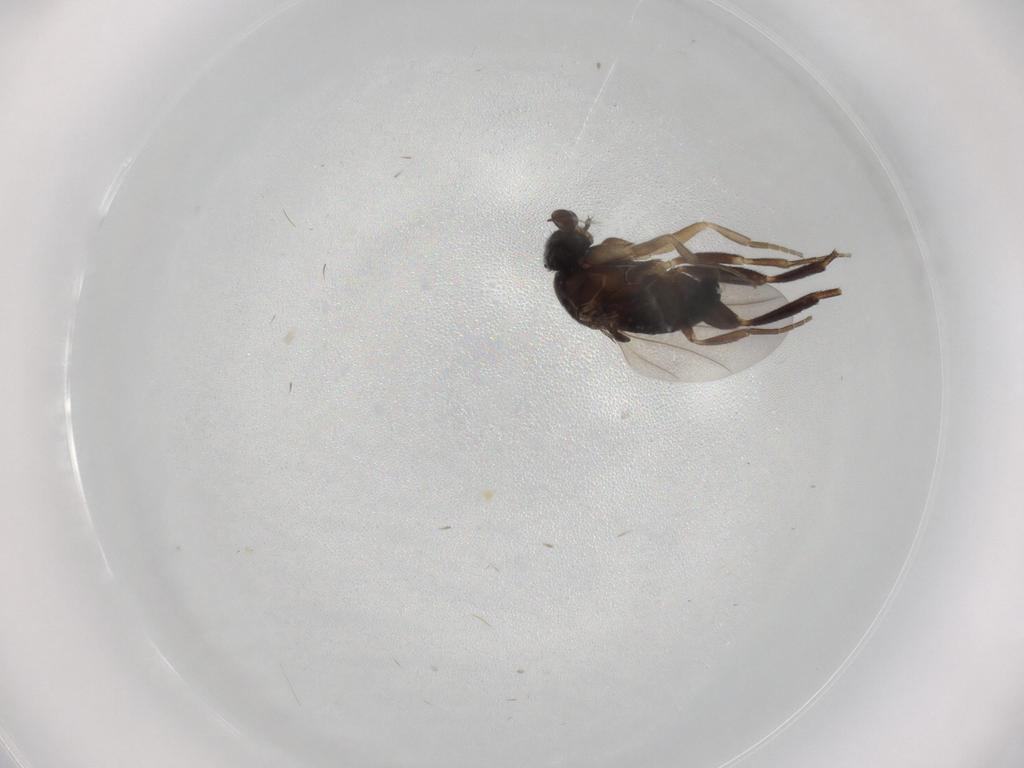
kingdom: Animalia
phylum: Arthropoda
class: Insecta
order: Diptera
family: Phoridae
